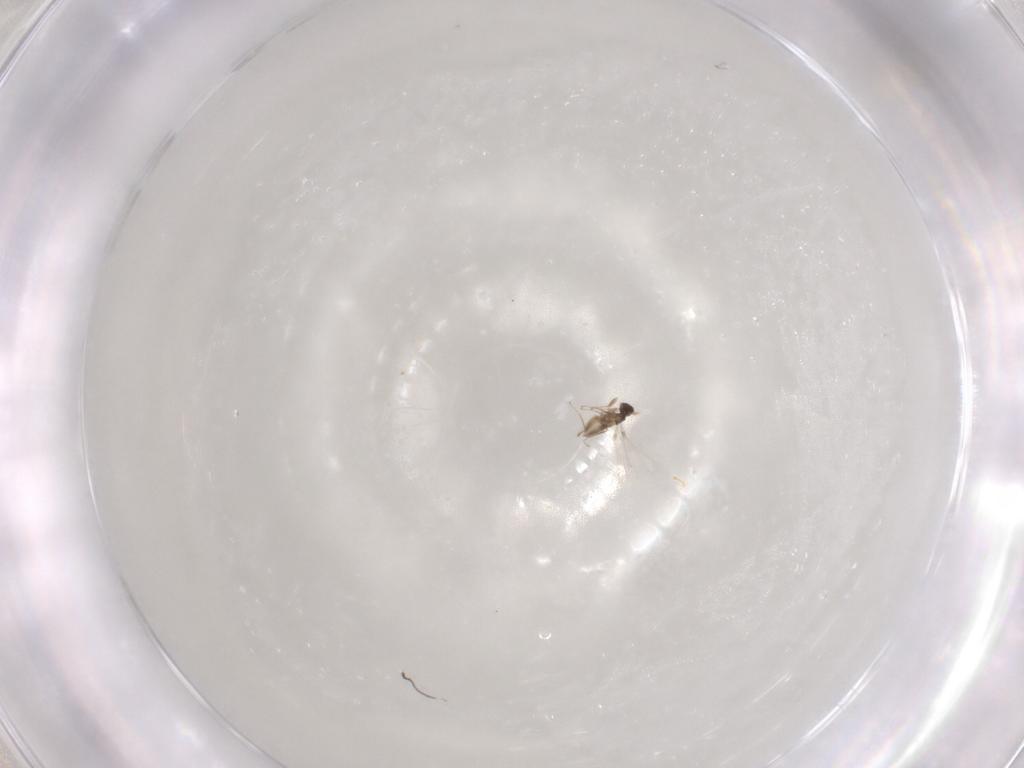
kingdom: Animalia
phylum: Arthropoda
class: Insecta
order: Hymenoptera
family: Mymaridae
